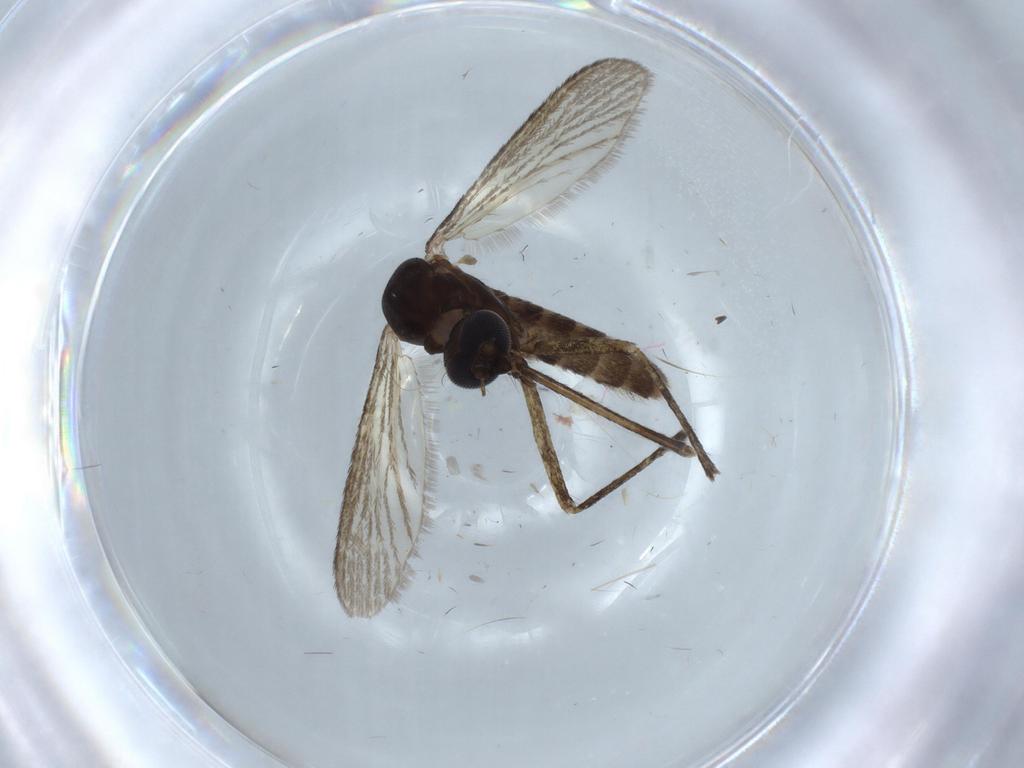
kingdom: Animalia
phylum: Arthropoda
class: Insecta
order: Diptera
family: Phoridae
